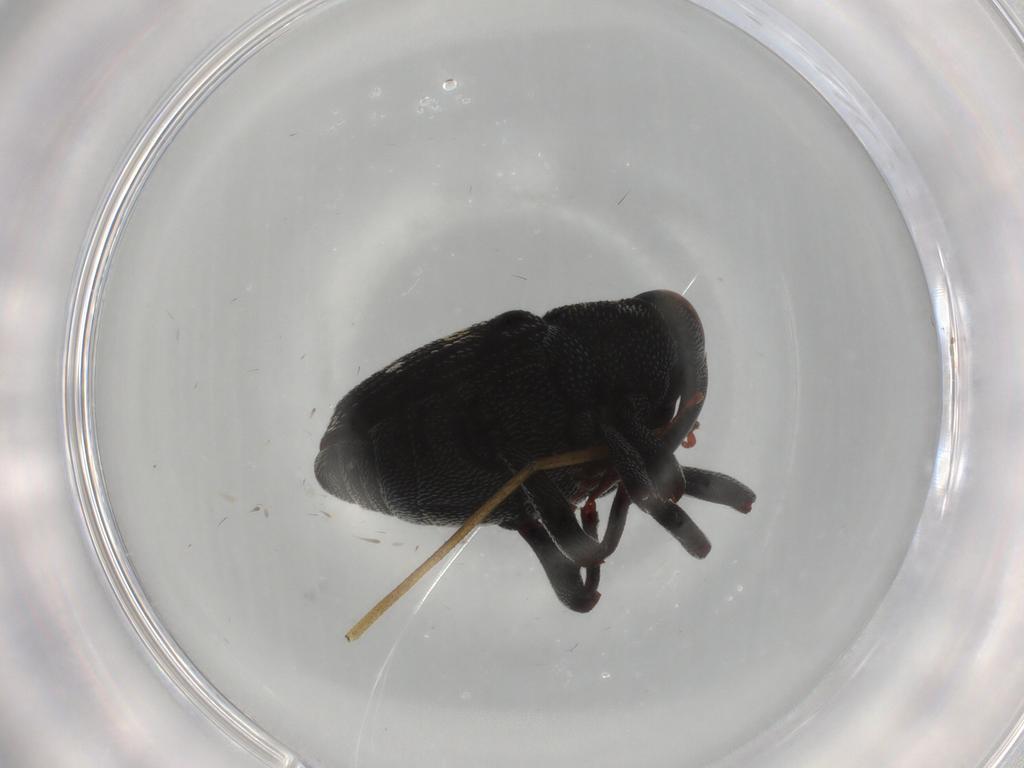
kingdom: Animalia
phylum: Arthropoda
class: Insecta
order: Coleoptera
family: Curculionidae
